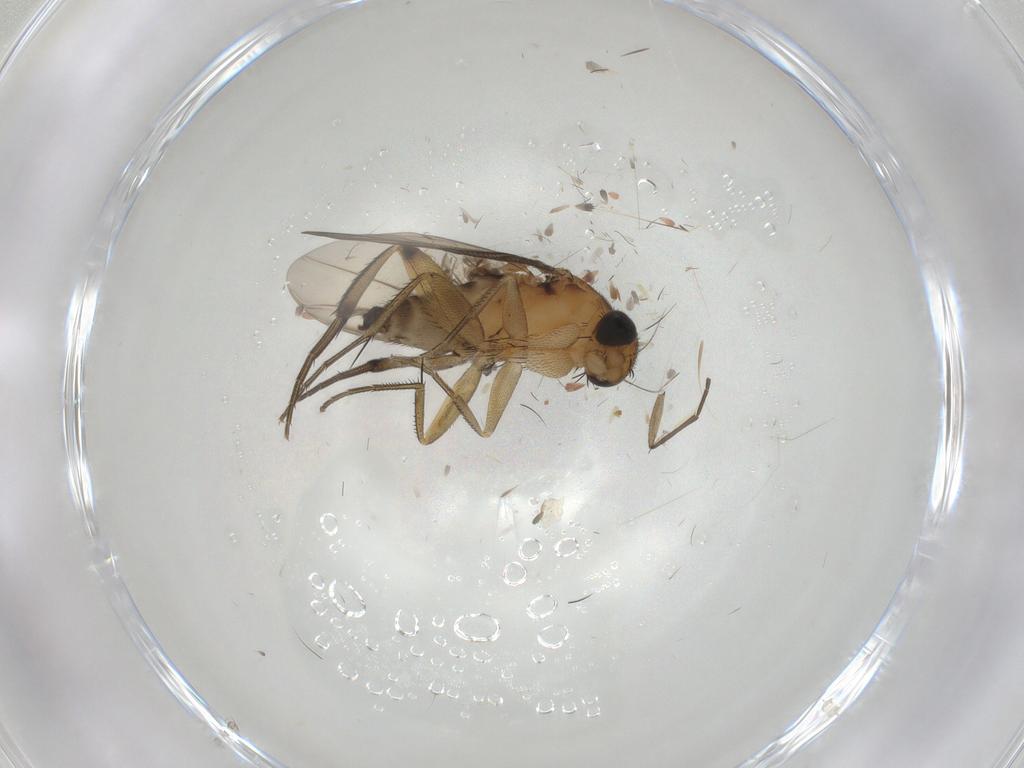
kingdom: Animalia
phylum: Arthropoda
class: Insecta
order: Diptera
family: Phoridae
